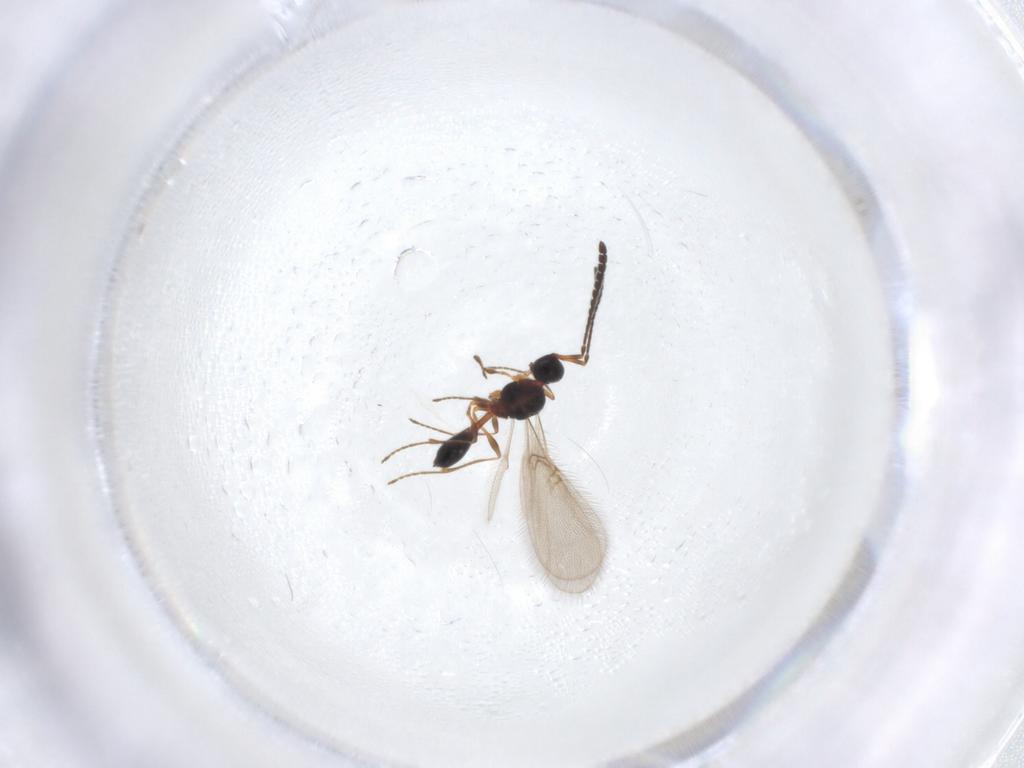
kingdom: Animalia
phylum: Arthropoda
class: Insecta
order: Hymenoptera
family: Diapriidae
